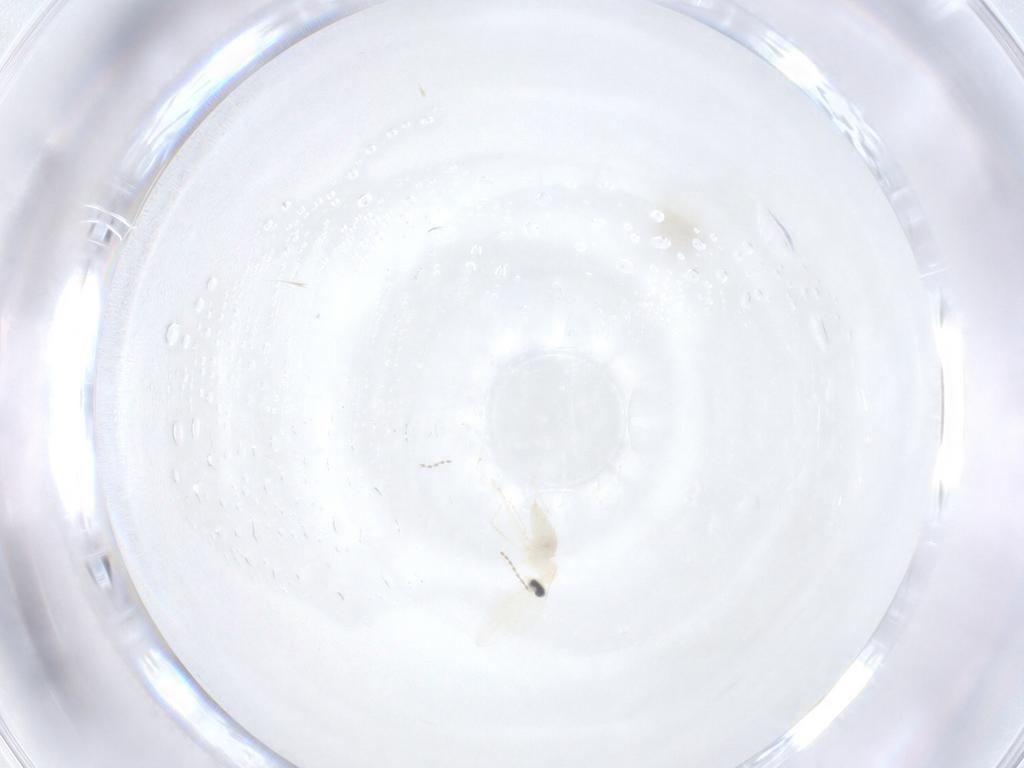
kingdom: Animalia
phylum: Arthropoda
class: Insecta
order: Diptera
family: Cecidomyiidae
